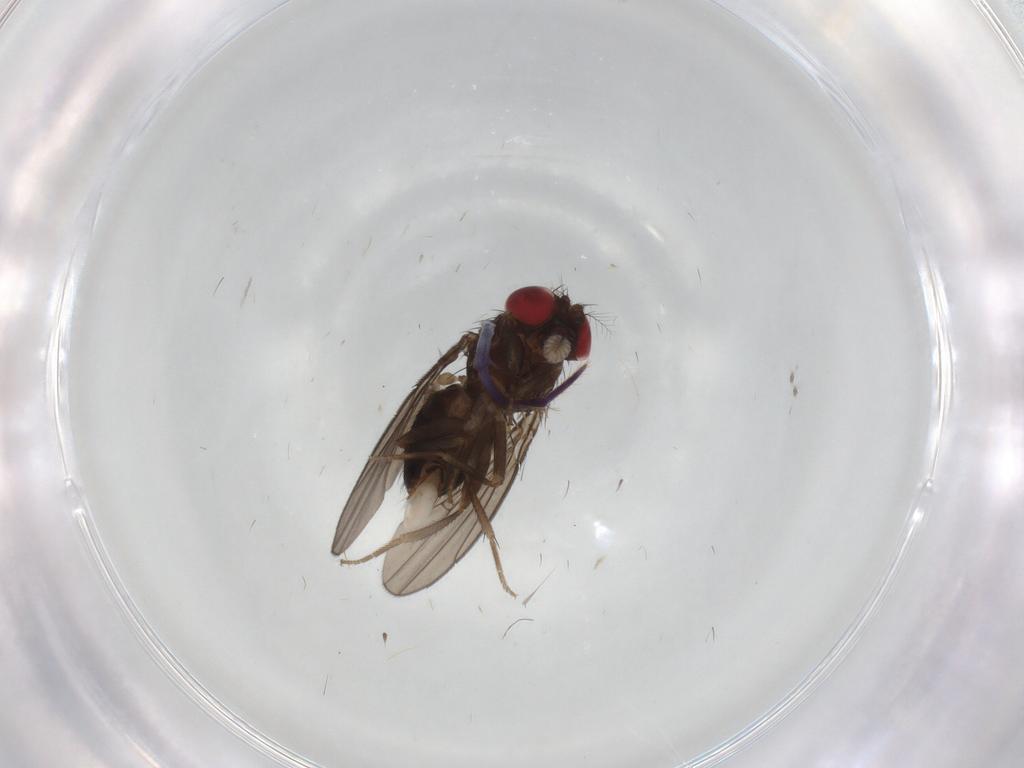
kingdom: Animalia
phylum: Arthropoda
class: Insecta
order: Diptera
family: Drosophilidae
